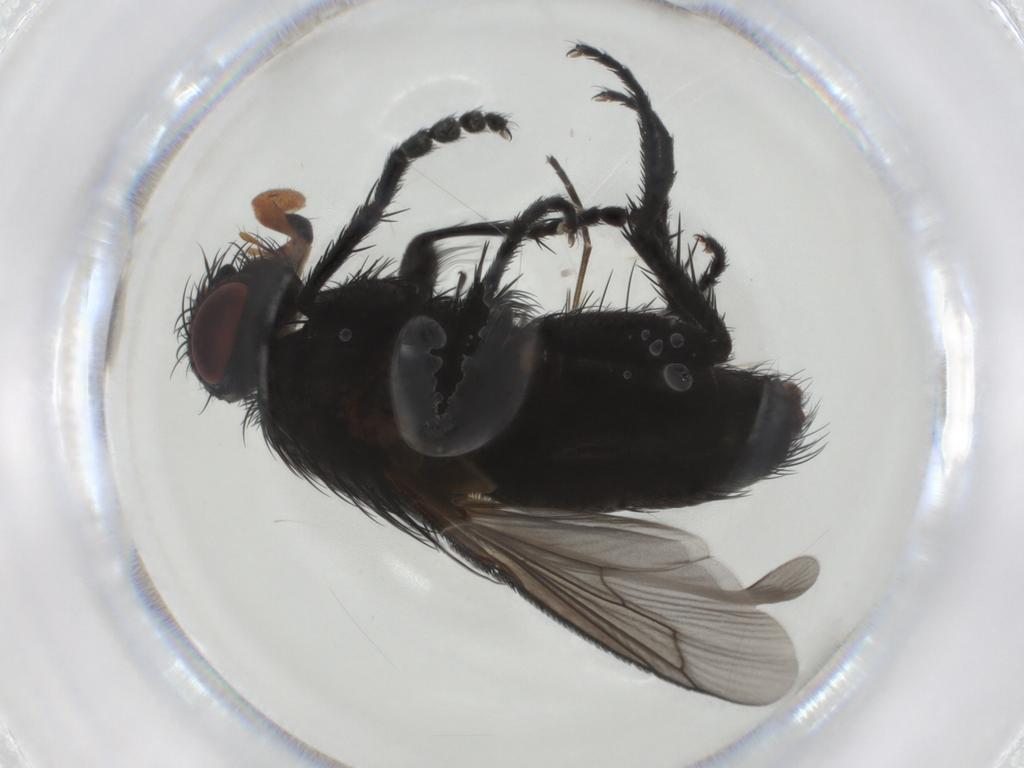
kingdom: Animalia
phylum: Arthropoda
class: Insecta
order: Diptera
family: Tachinidae
